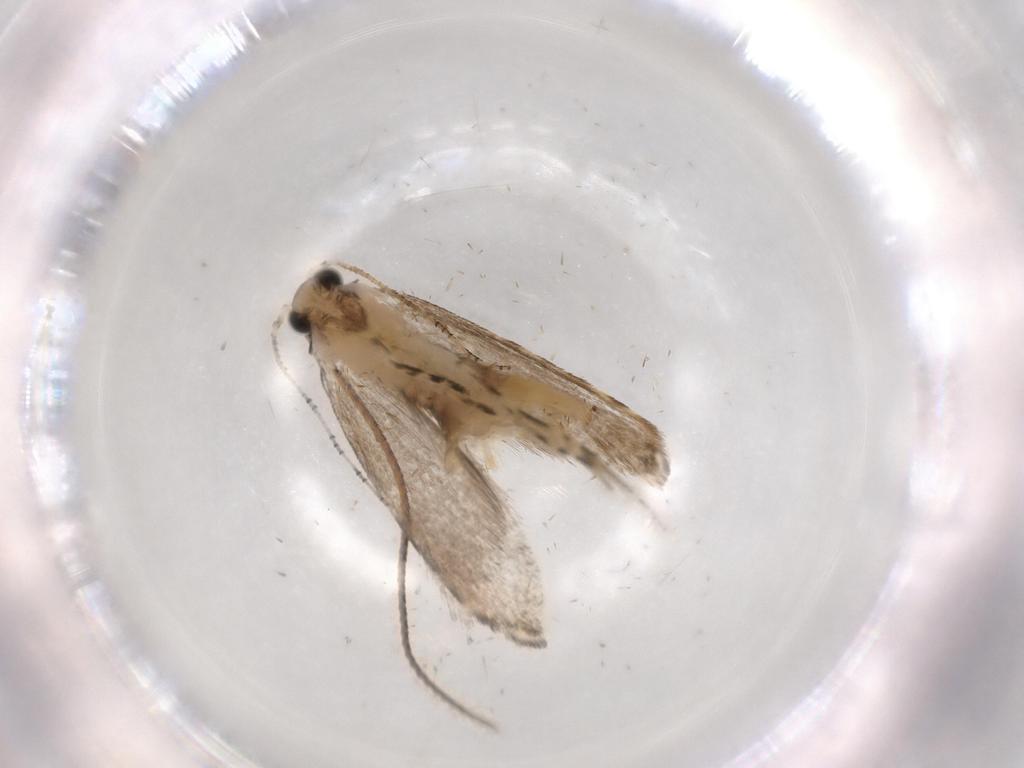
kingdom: Animalia
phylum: Arthropoda
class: Insecta
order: Lepidoptera
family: Tineidae
